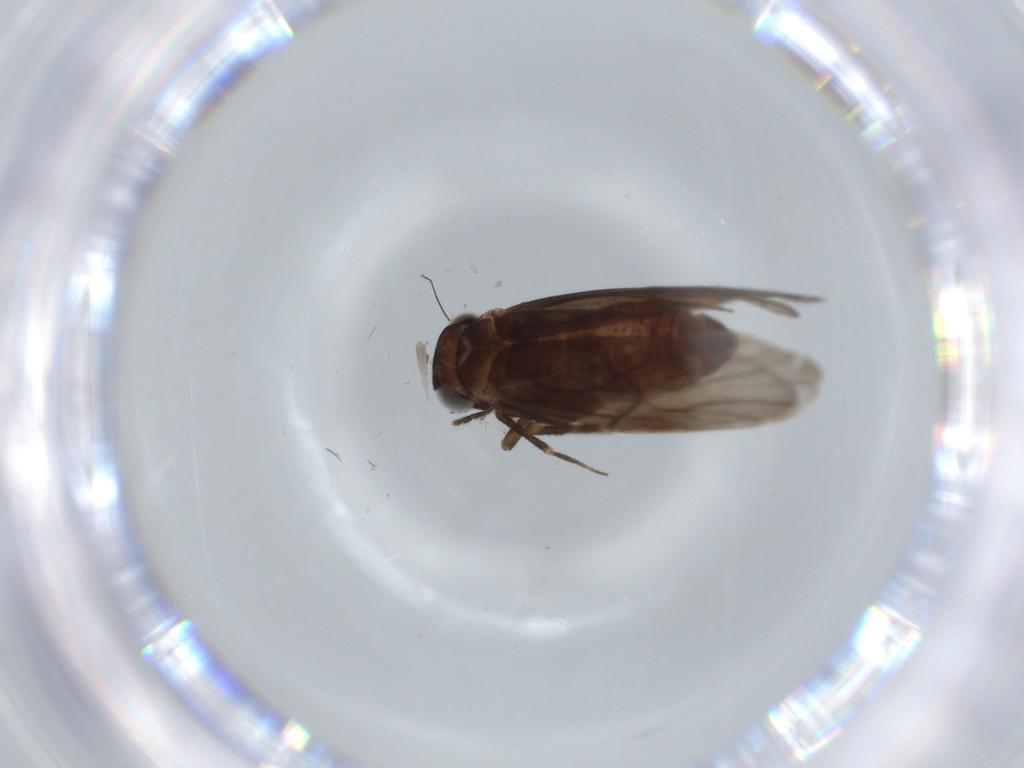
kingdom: Animalia
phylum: Arthropoda
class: Insecta
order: Psocodea
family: Amphientomidae
